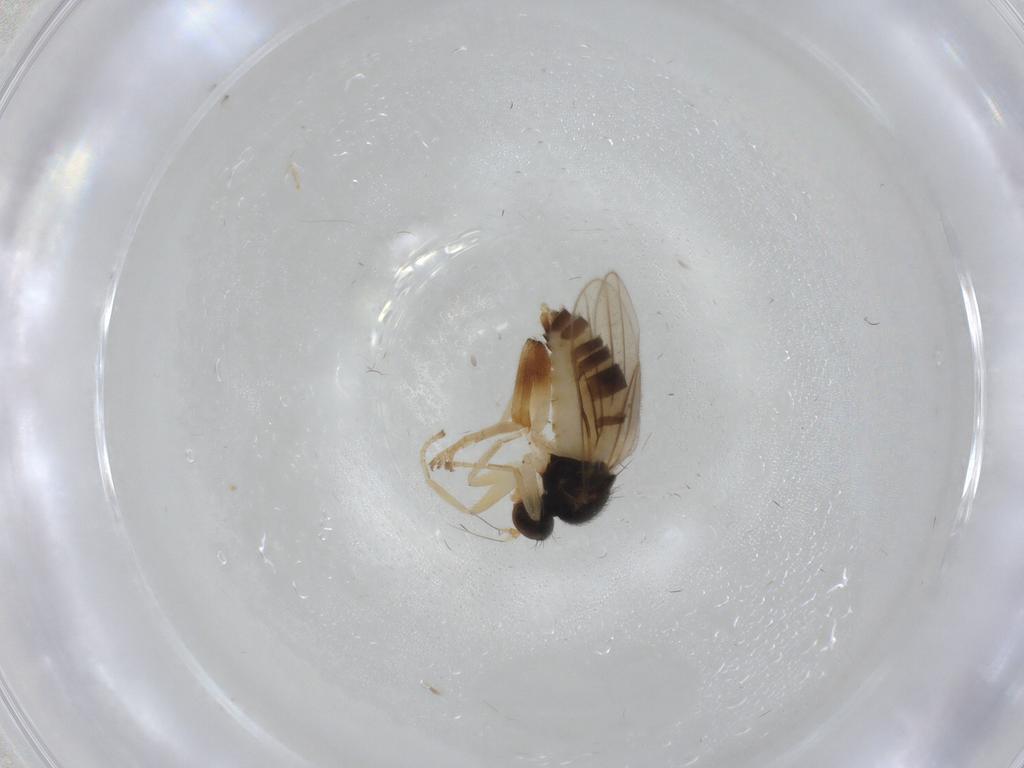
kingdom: Animalia
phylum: Arthropoda
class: Insecta
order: Diptera
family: Hybotidae
